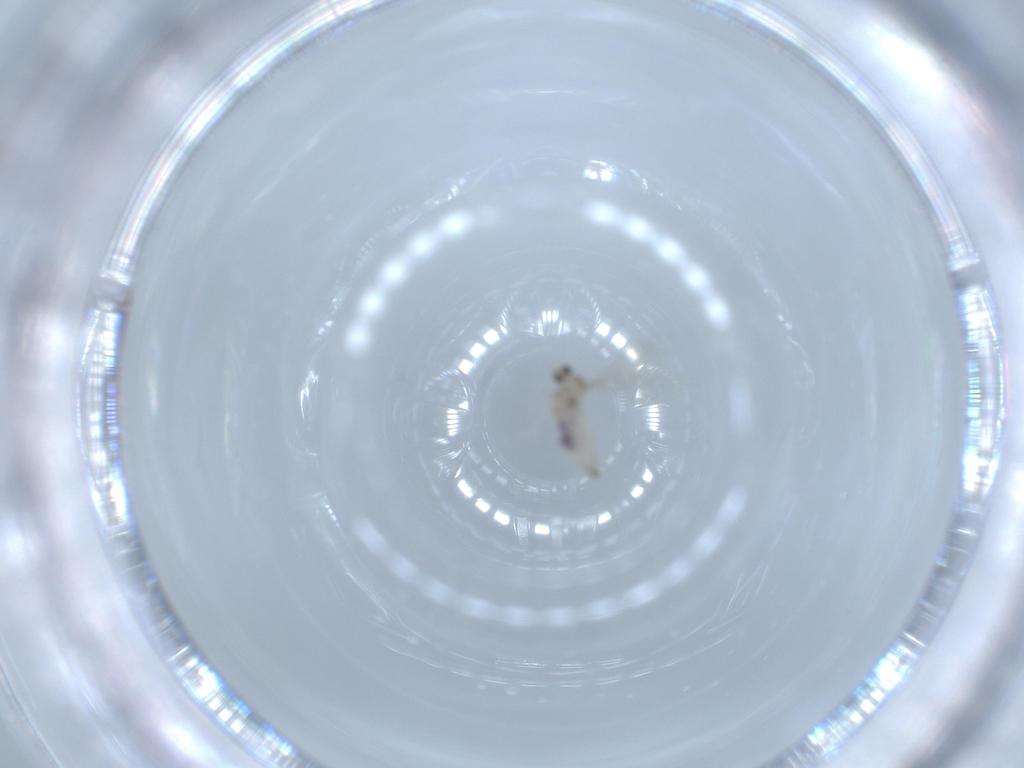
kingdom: Animalia
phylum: Arthropoda
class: Insecta
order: Diptera
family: Cecidomyiidae
